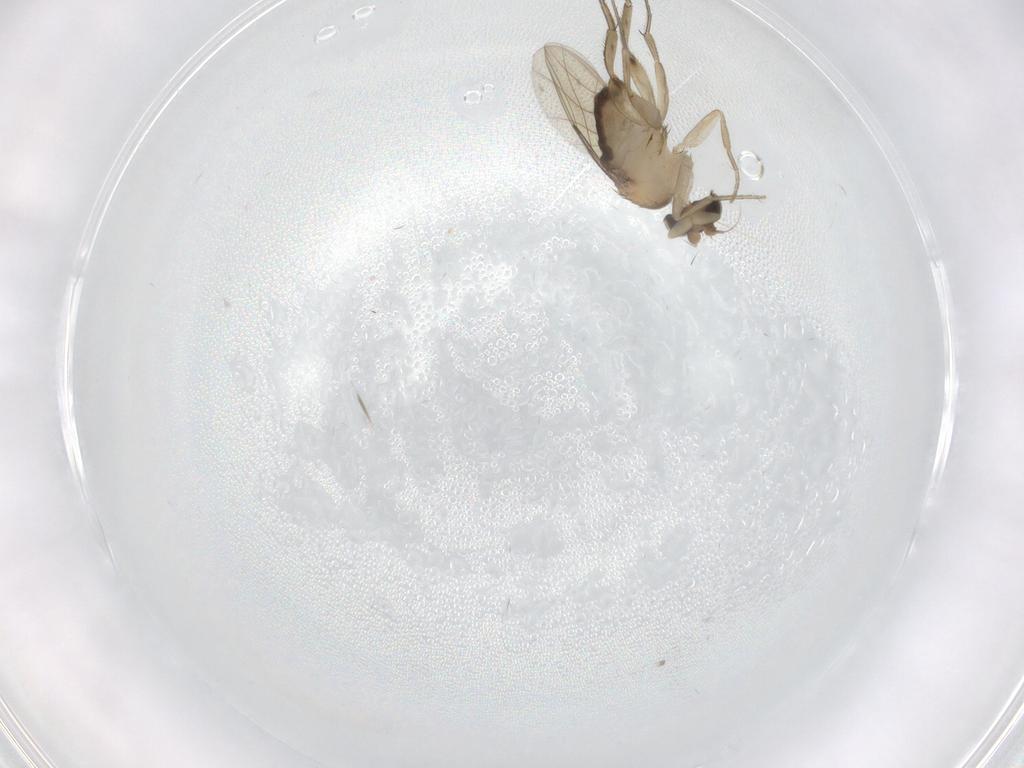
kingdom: Animalia
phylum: Arthropoda
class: Insecta
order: Diptera
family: Phoridae
